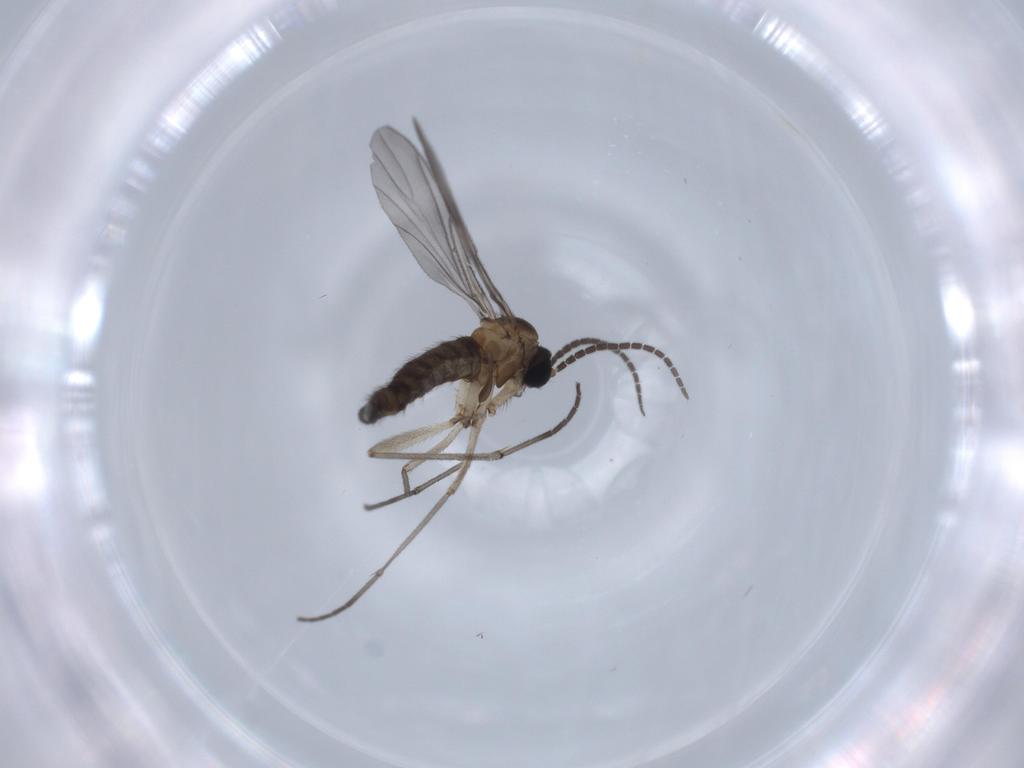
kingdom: Animalia
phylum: Arthropoda
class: Insecta
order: Diptera
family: Sciaridae
